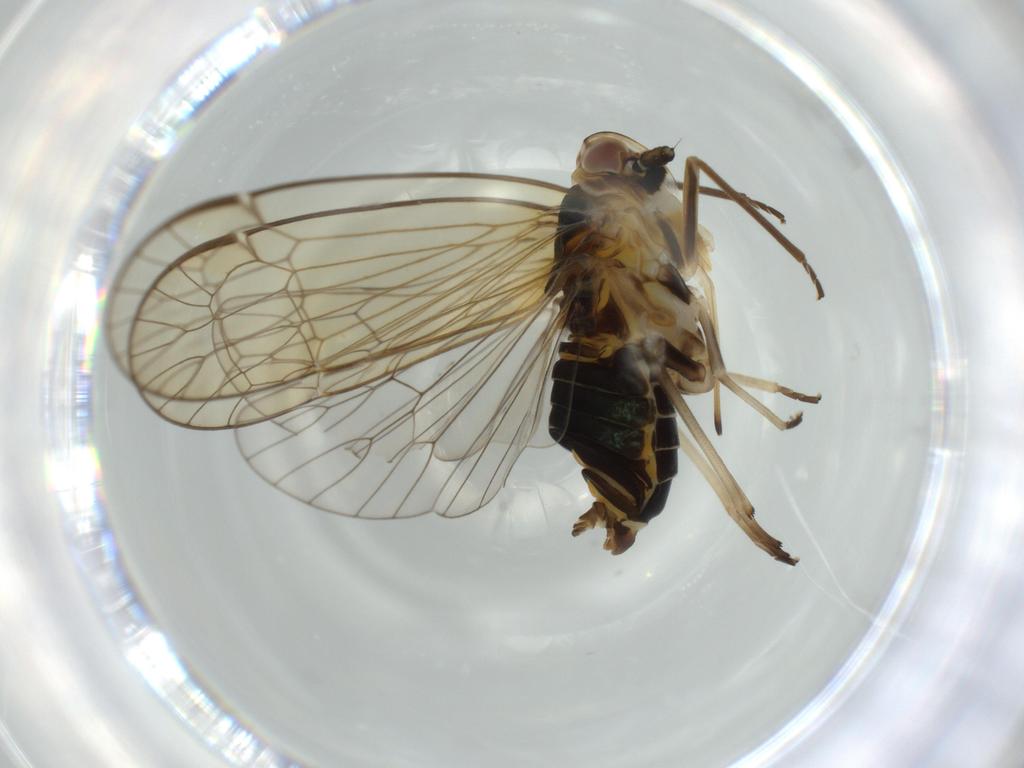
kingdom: Animalia
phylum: Arthropoda
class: Insecta
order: Hemiptera
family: Kinnaridae
